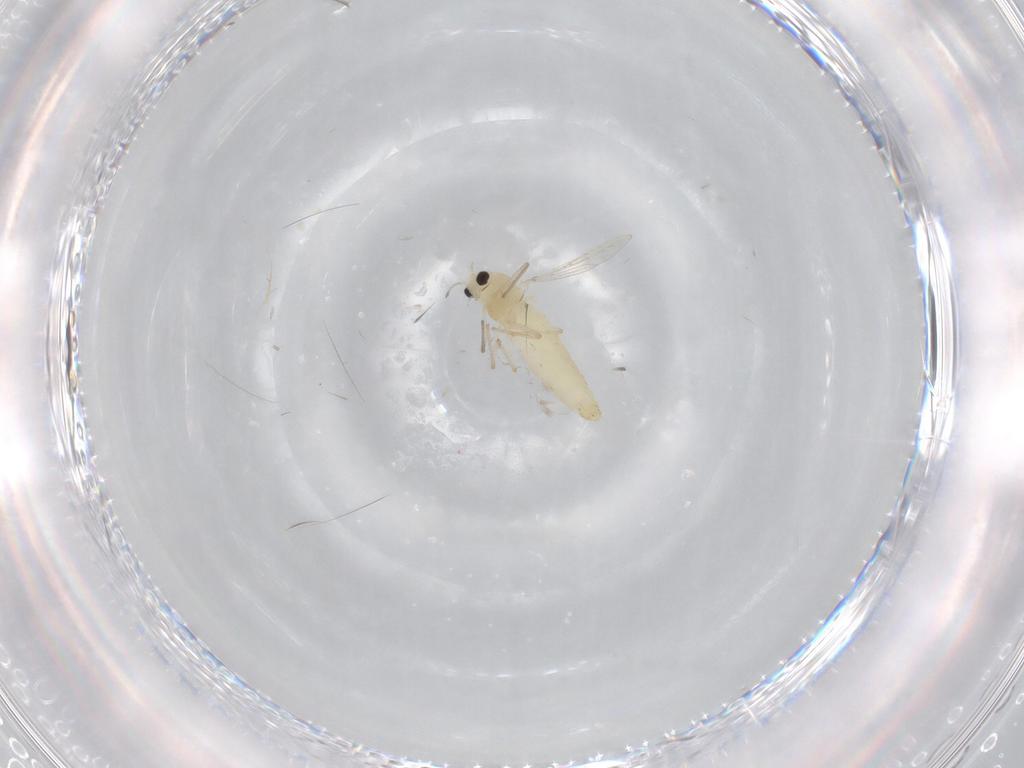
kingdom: Animalia
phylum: Arthropoda
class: Insecta
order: Diptera
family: Chironomidae
